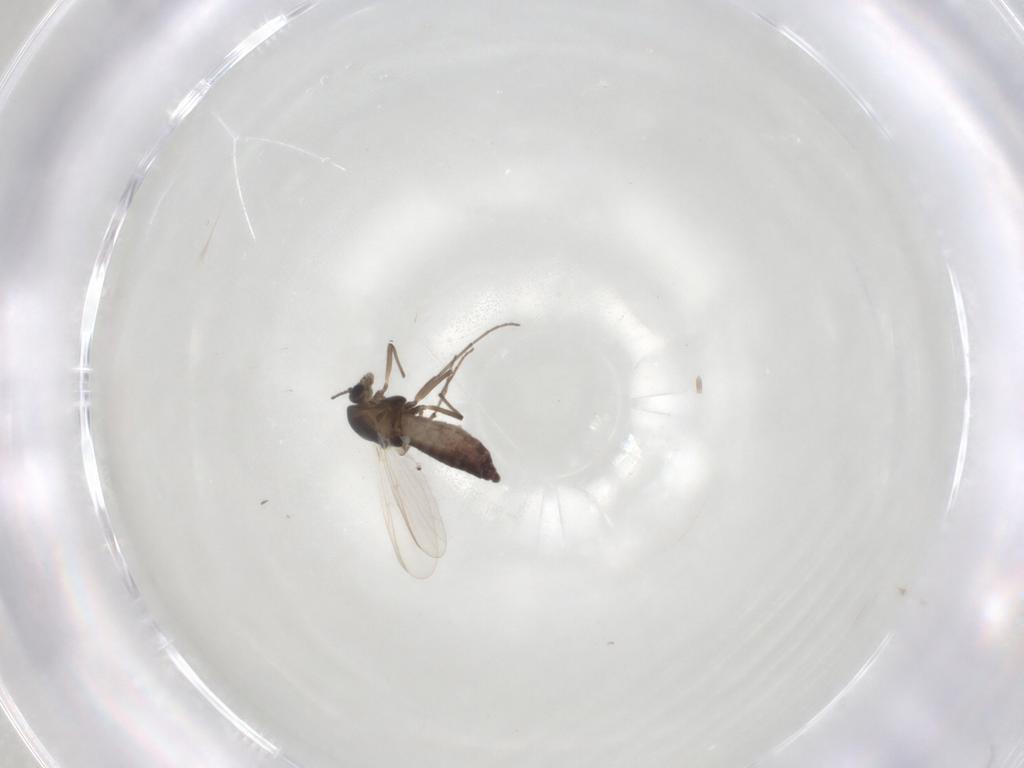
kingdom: Animalia
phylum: Arthropoda
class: Insecta
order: Diptera
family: Chironomidae
